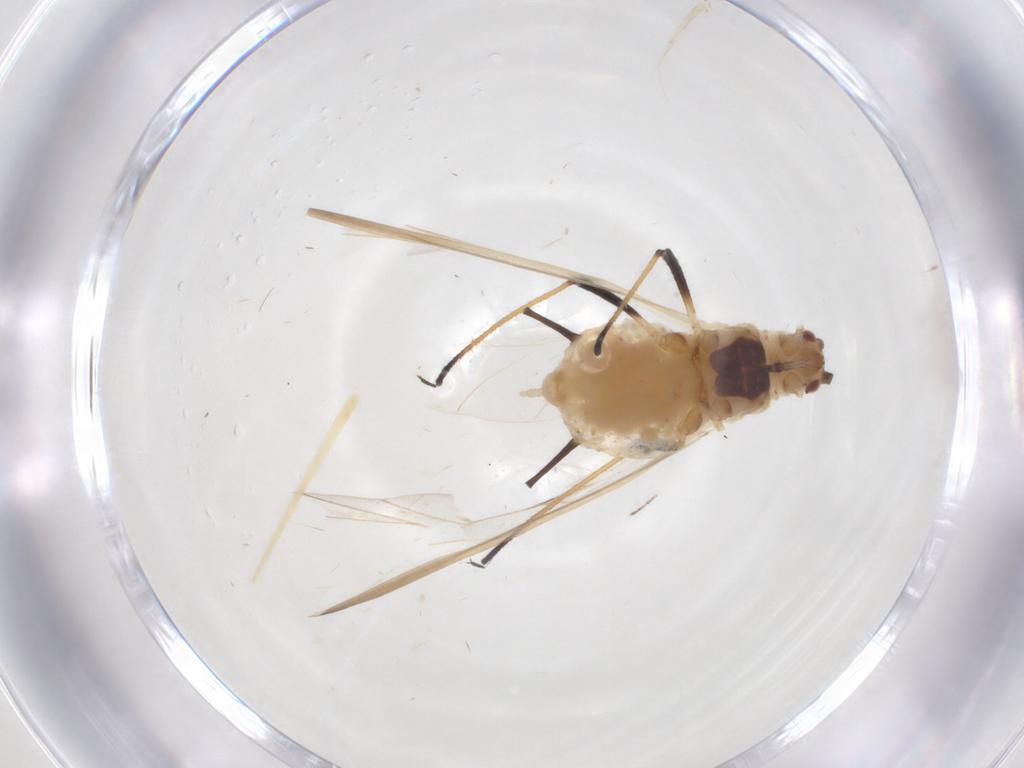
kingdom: Animalia
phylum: Arthropoda
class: Insecta
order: Hemiptera
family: Aphididae
